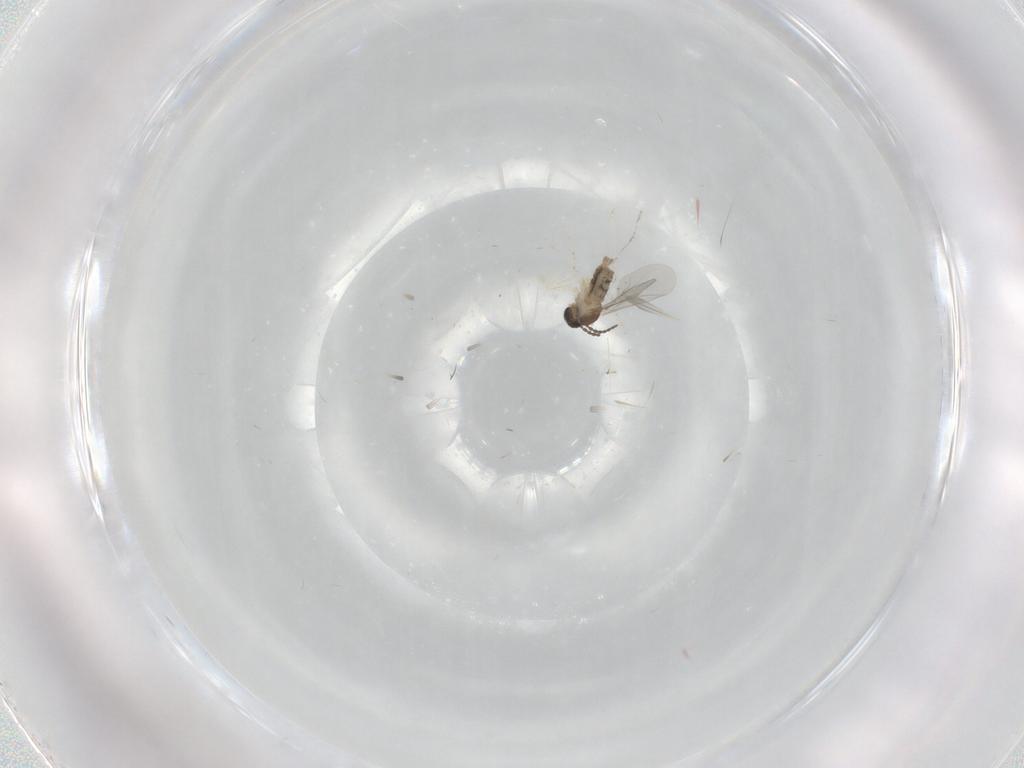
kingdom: Animalia
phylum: Arthropoda
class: Insecta
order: Diptera
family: Cecidomyiidae
